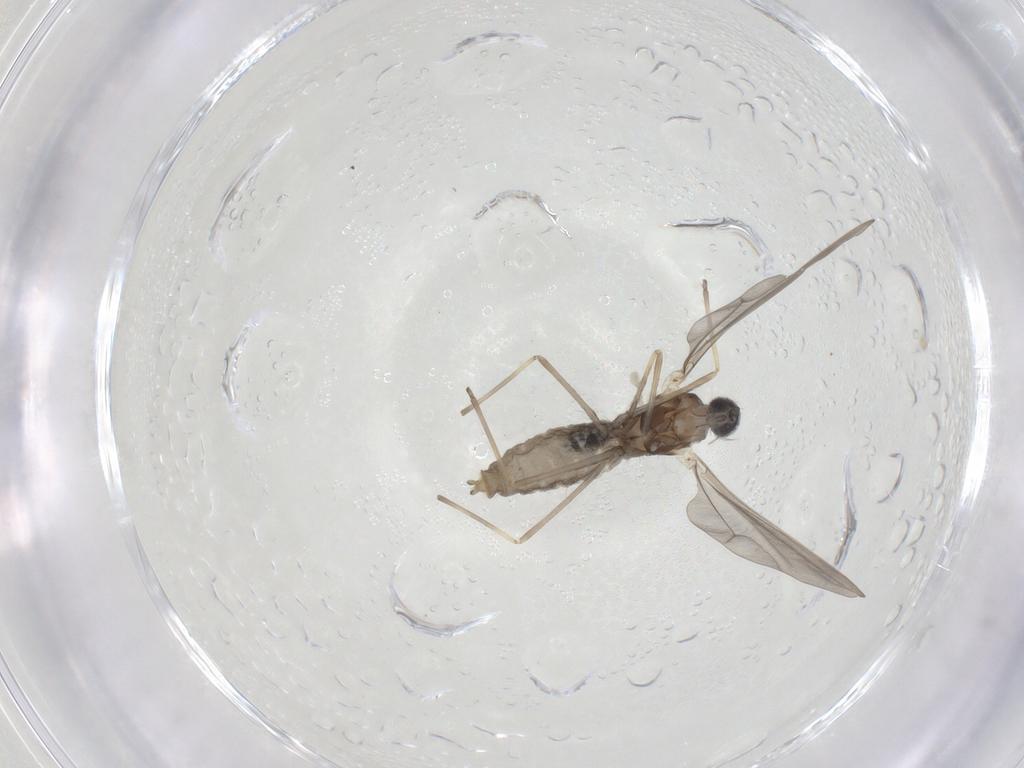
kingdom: Animalia
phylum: Arthropoda
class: Insecta
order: Diptera
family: Cecidomyiidae
